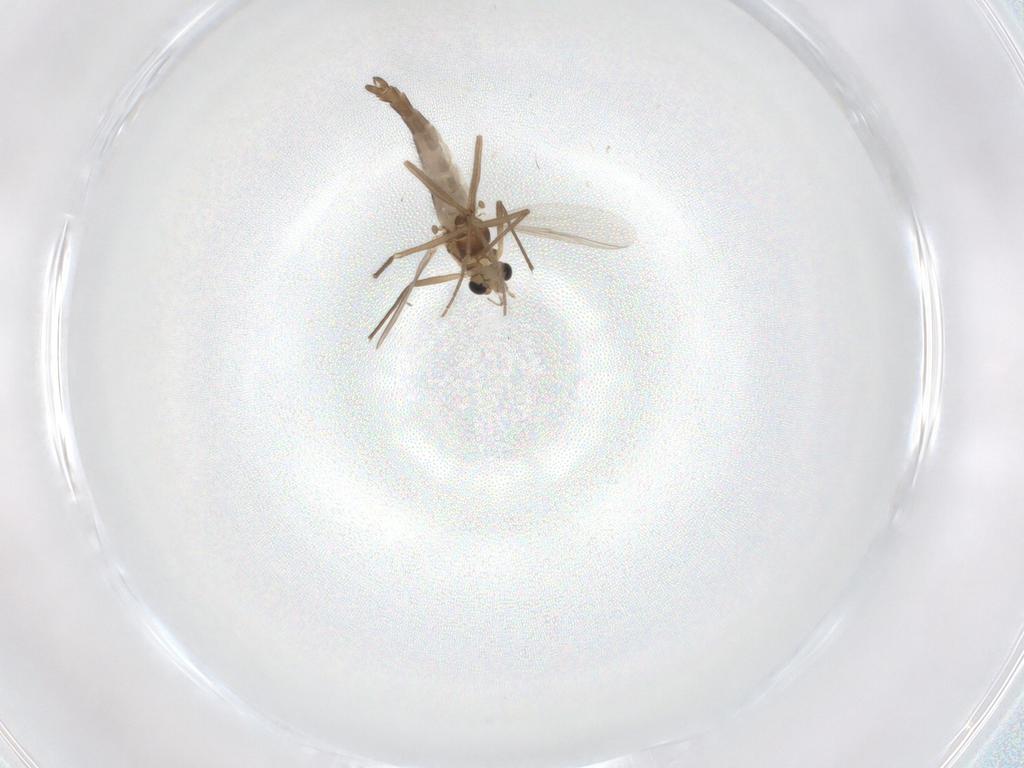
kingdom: Animalia
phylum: Arthropoda
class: Insecta
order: Diptera
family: Chironomidae
